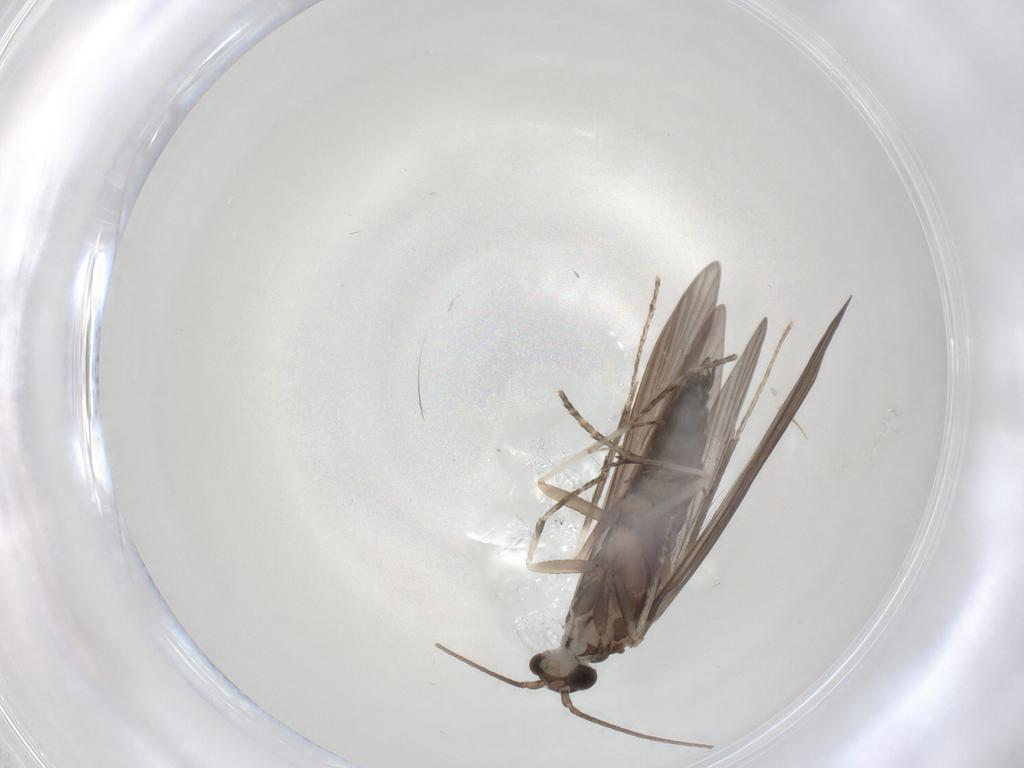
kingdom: Animalia
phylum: Arthropoda
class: Insecta
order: Trichoptera
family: Xiphocentronidae
